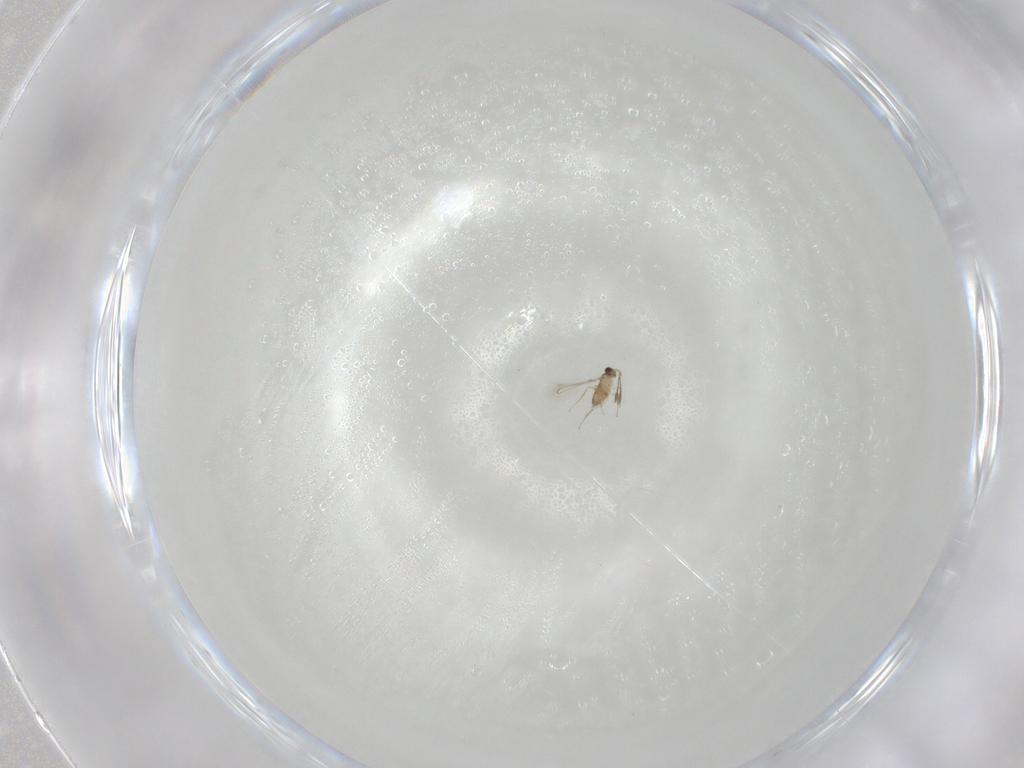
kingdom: Animalia
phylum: Arthropoda
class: Insecta
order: Hymenoptera
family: Mymaridae
